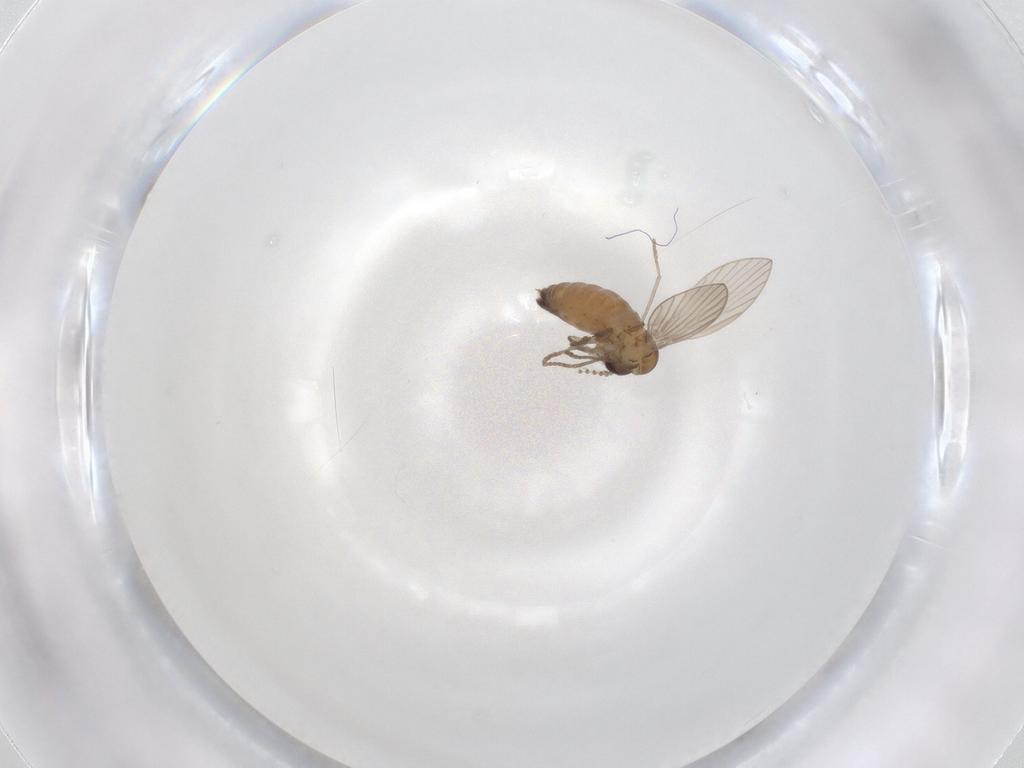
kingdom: Animalia
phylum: Arthropoda
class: Insecta
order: Diptera
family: Psychodidae
